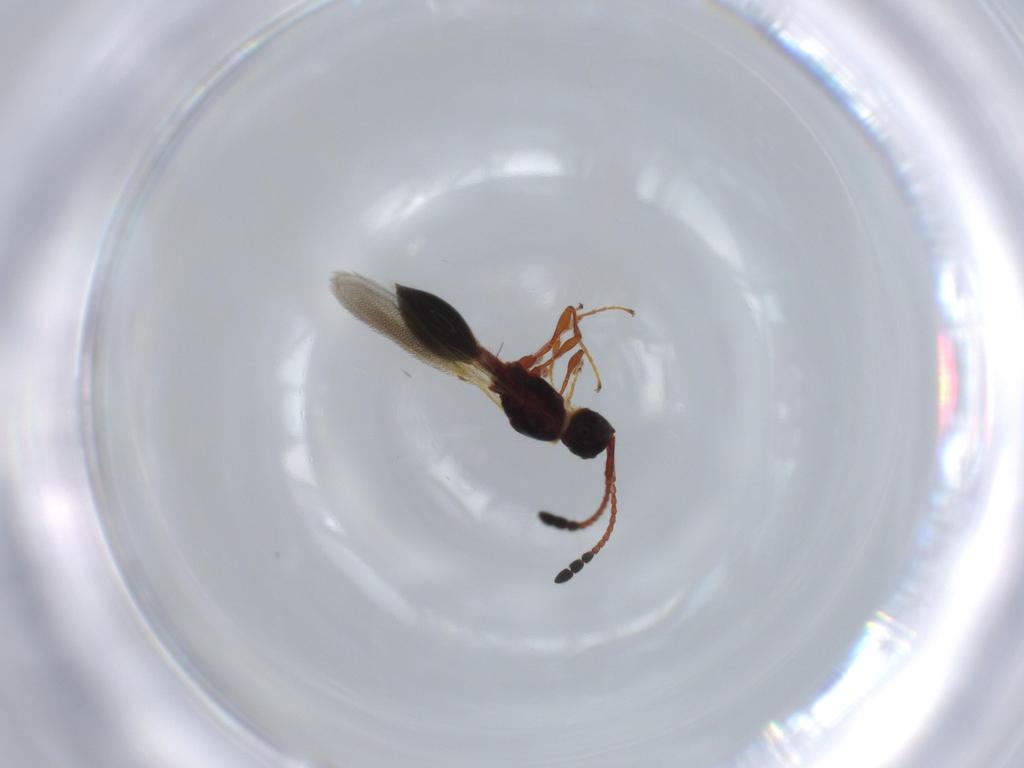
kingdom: Animalia
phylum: Arthropoda
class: Insecta
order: Hymenoptera
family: Diapriidae
